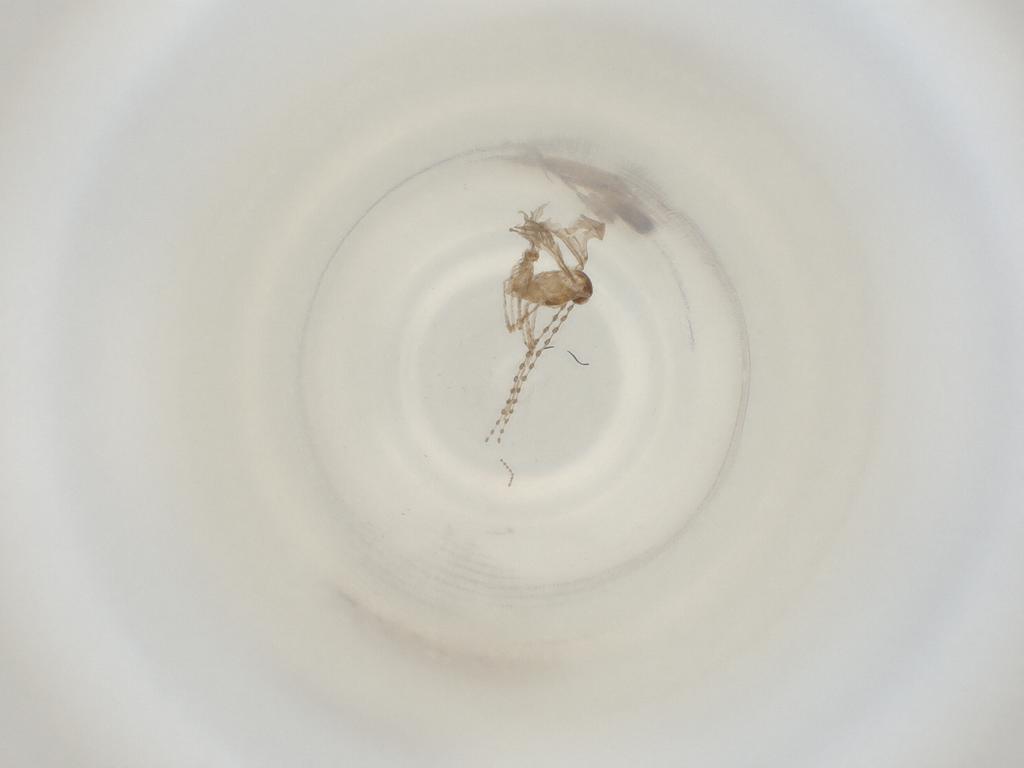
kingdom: Animalia
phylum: Arthropoda
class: Insecta
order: Diptera
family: Cecidomyiidae
